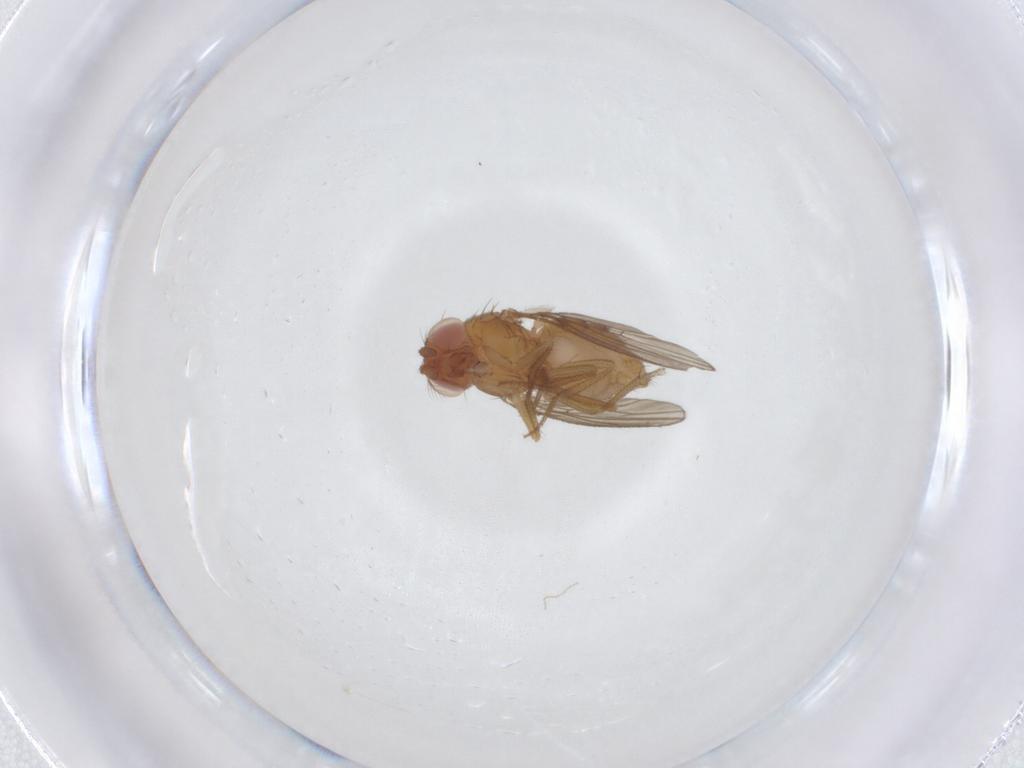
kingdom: Animalia
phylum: Arthropoda
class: Insecta
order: Diptera
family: Drosophilidae
